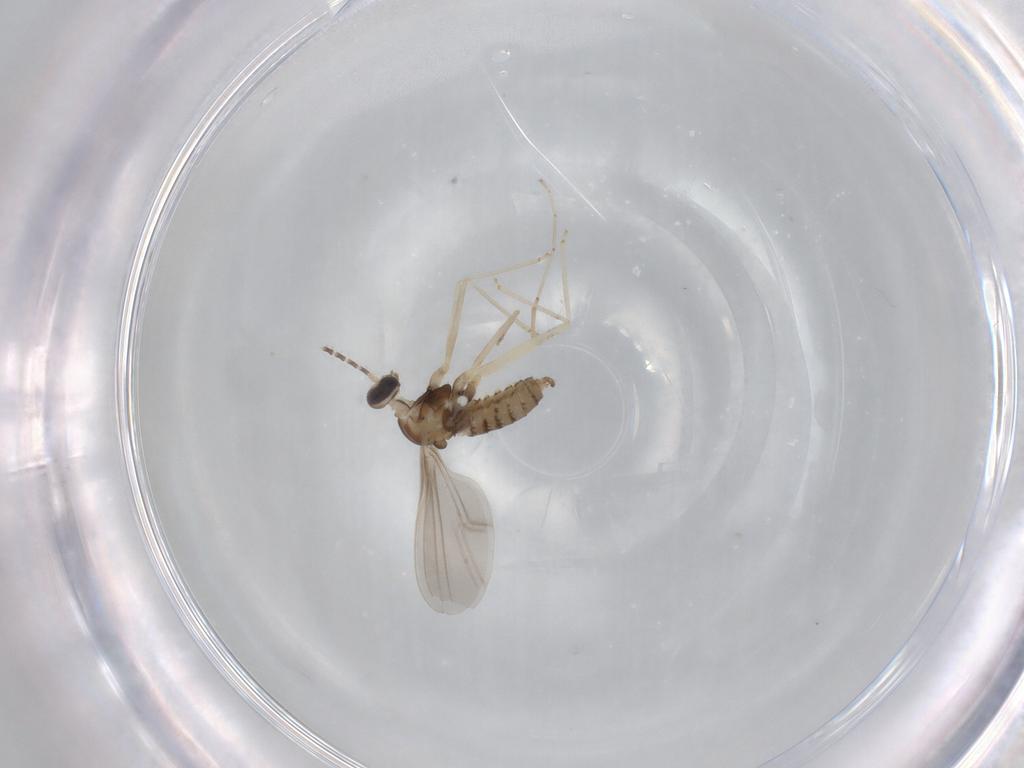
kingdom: Animalia
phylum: Arthropoda
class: Insecta
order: Diptera
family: Cecidomyiidae
